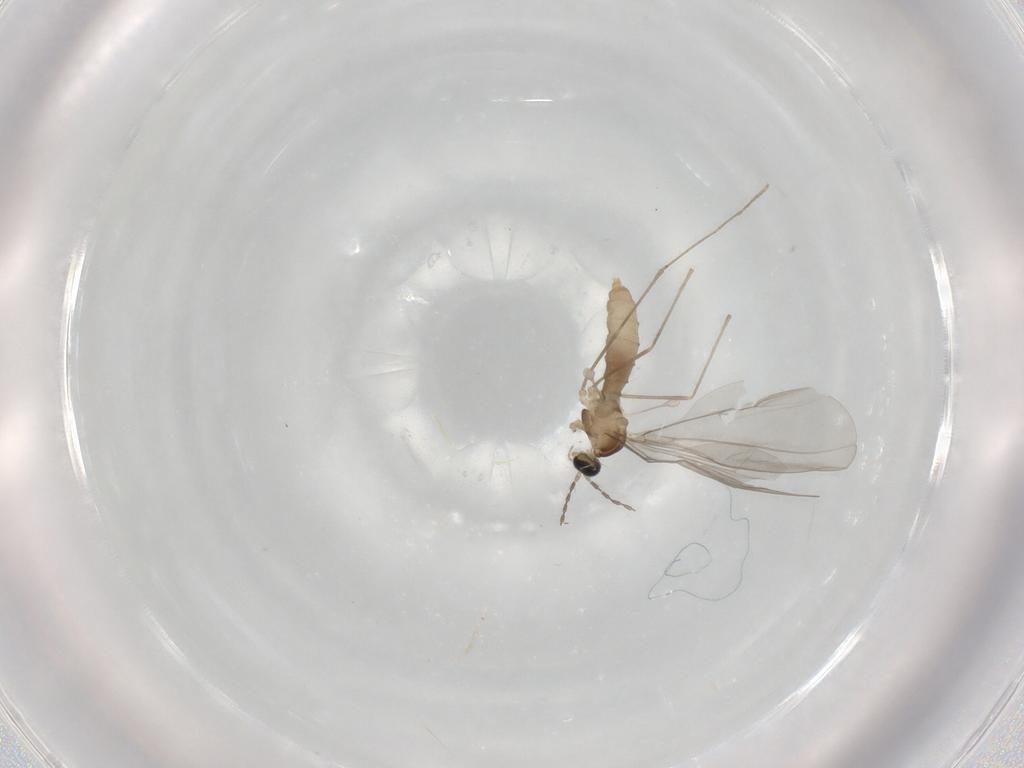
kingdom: Animalia
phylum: Arthropoda
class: Insecta
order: Diptera
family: Cecidomyiidae
